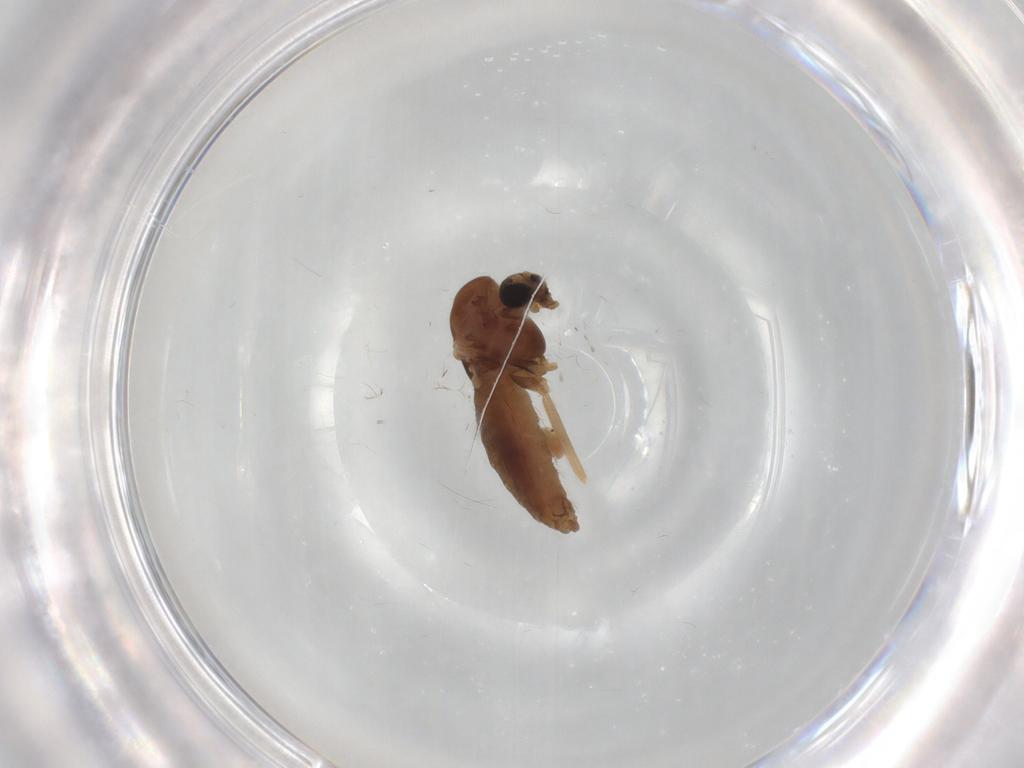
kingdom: Animalia
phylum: Arthropoda
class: Insecta
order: Diptera
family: Chironomidae
